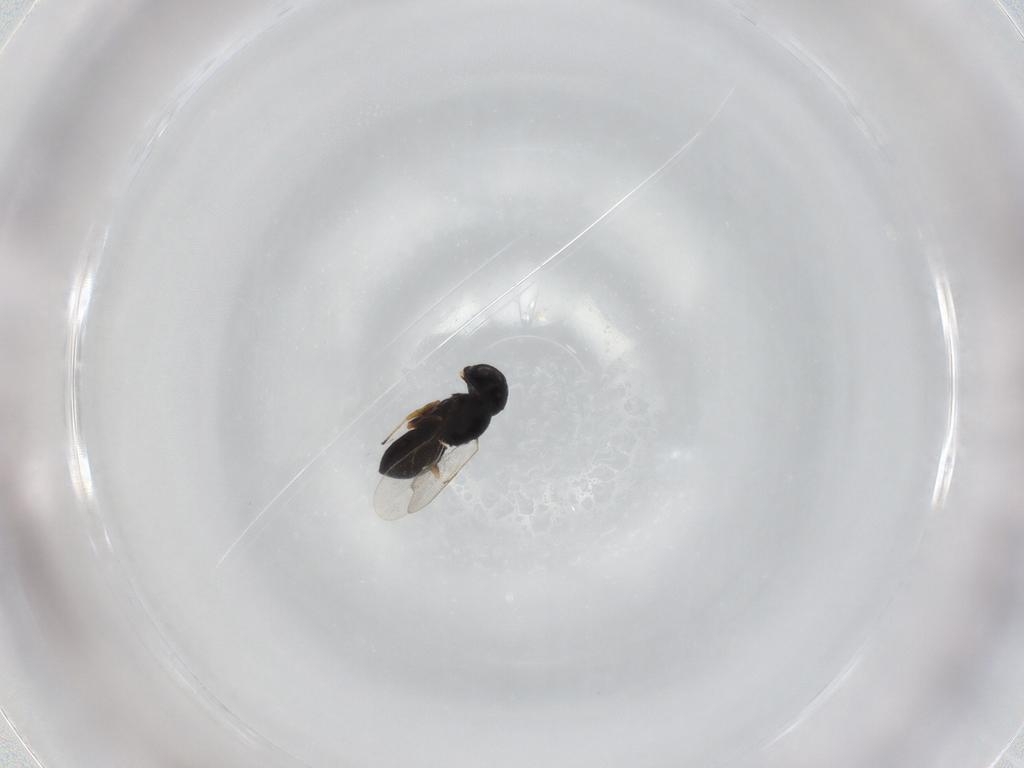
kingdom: Animalia
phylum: Arthropoda
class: Insecta
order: Hymenoptera
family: Scelionidae
